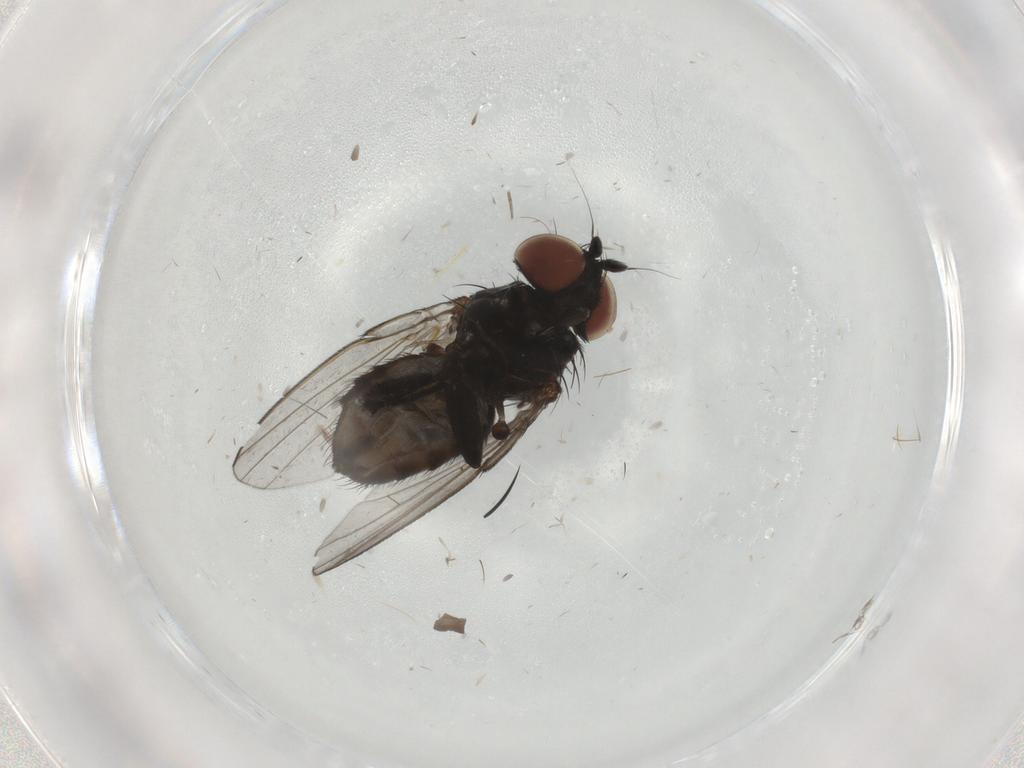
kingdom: Animalia
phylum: Arthropoda
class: Insecta
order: Diptera
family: Milichiidae
